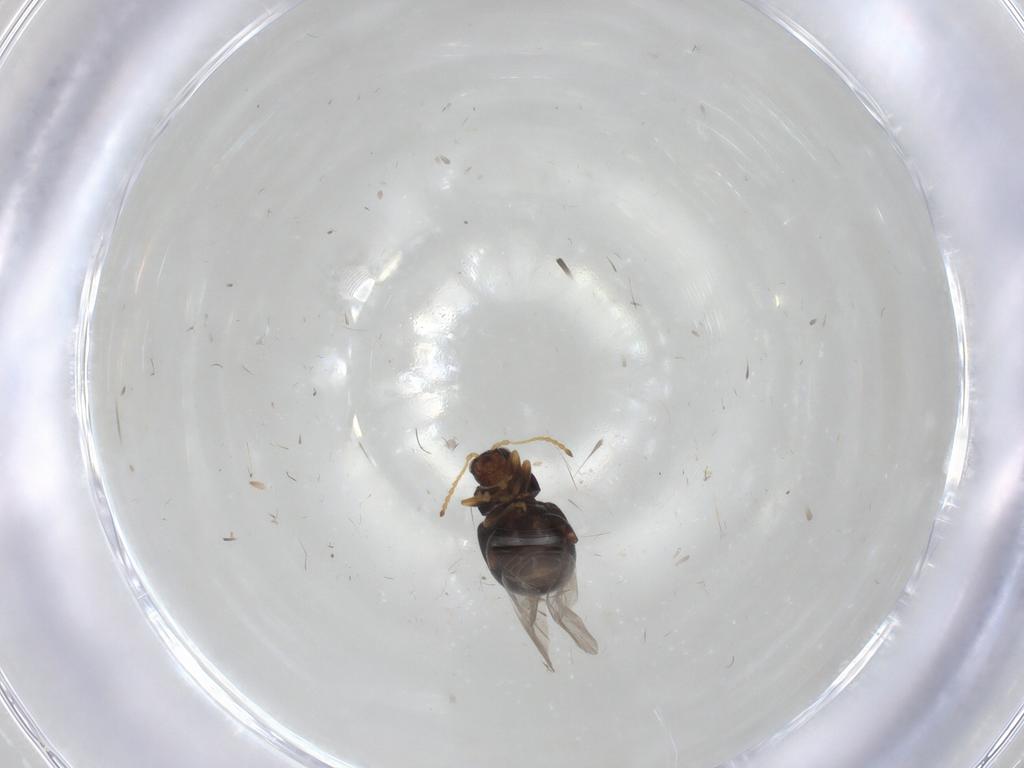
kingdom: Animalia
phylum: Arthropoda
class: Insecta
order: Coleoptera
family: Chrysomelidae
